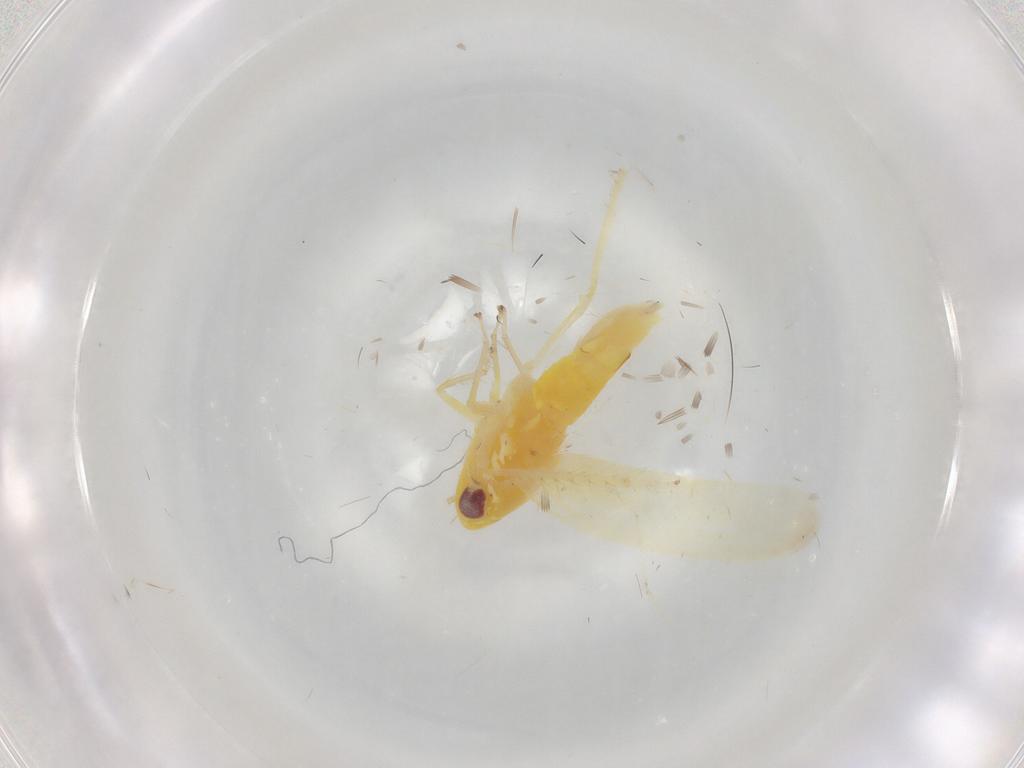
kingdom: Animalia
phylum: Arthropoda
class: Insecta
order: Hemiptera
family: Cicadellidae
